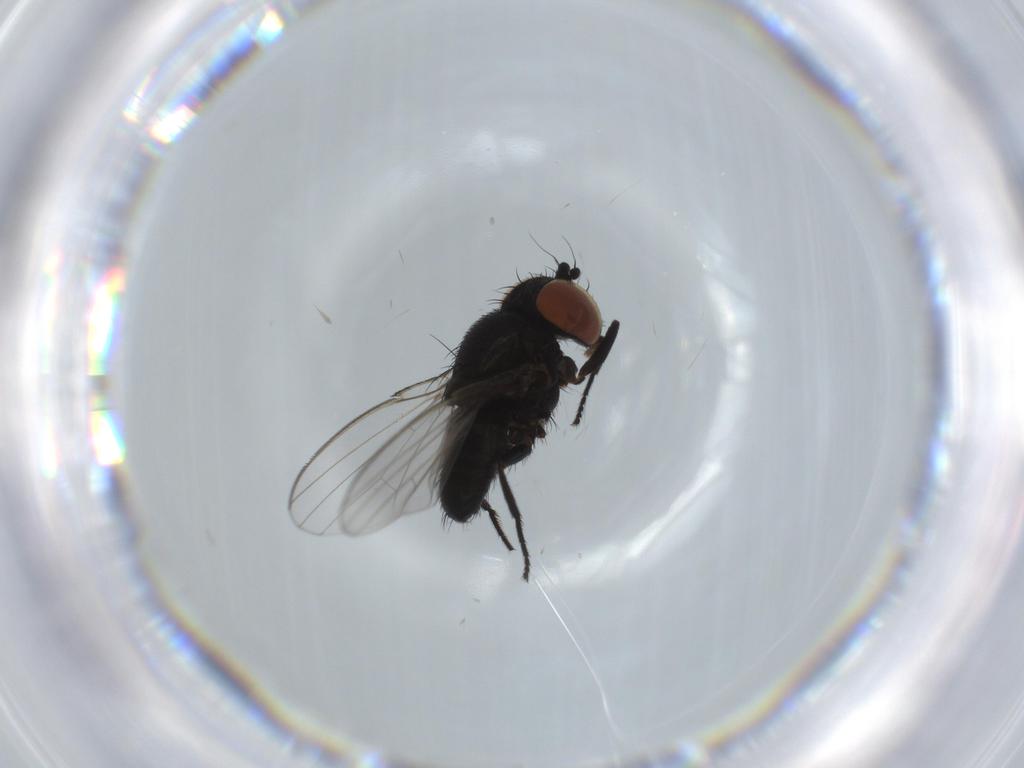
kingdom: Animalia
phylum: Arthropoda
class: Insecta
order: Diptera
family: Milichiidae
